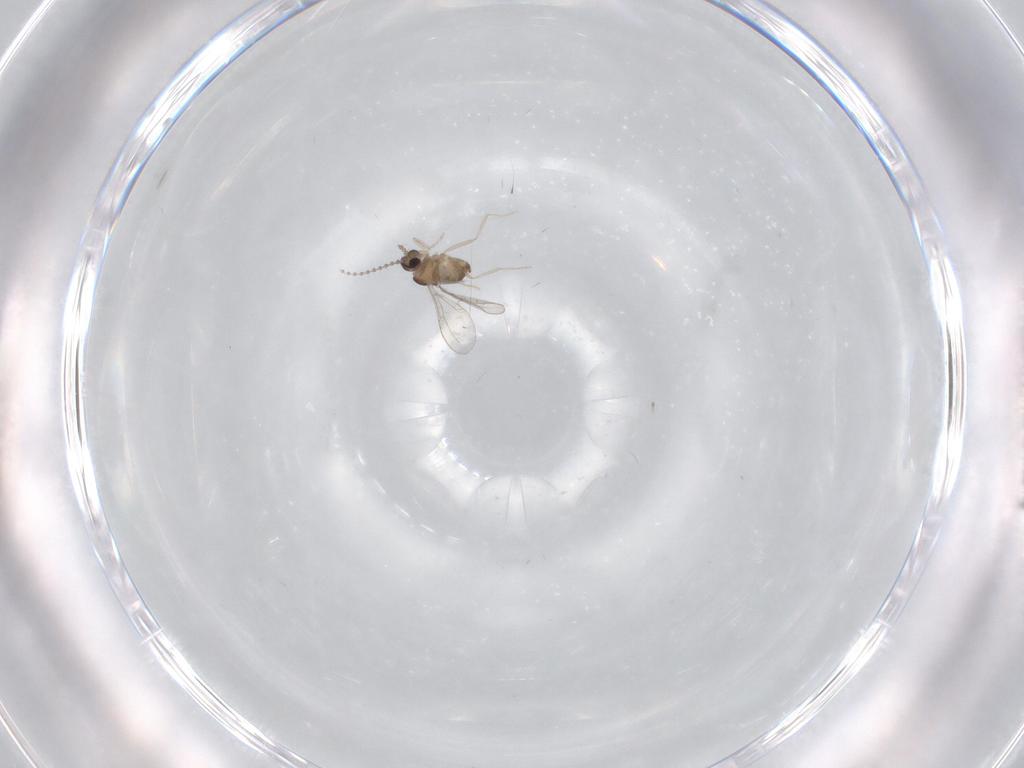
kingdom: Animalia
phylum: Arthropoda
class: Insecta
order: Diptera
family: Cecidomyiidae
